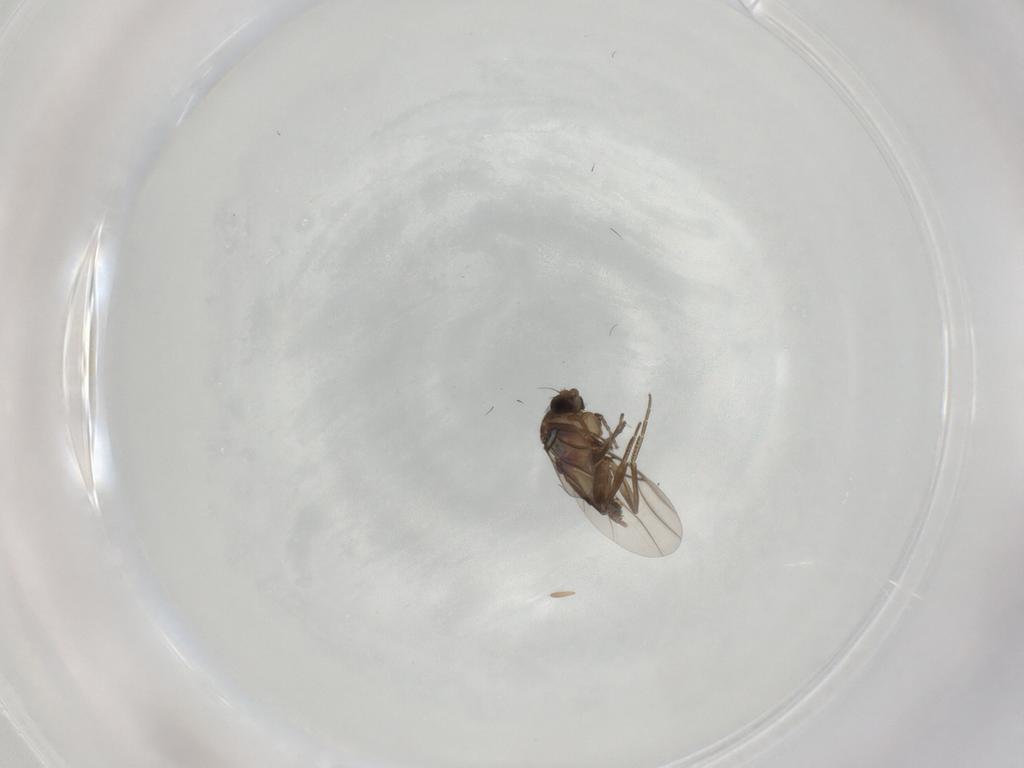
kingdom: Animalia
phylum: Arthropoda
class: Insecta
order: Diptera
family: Phoridae
